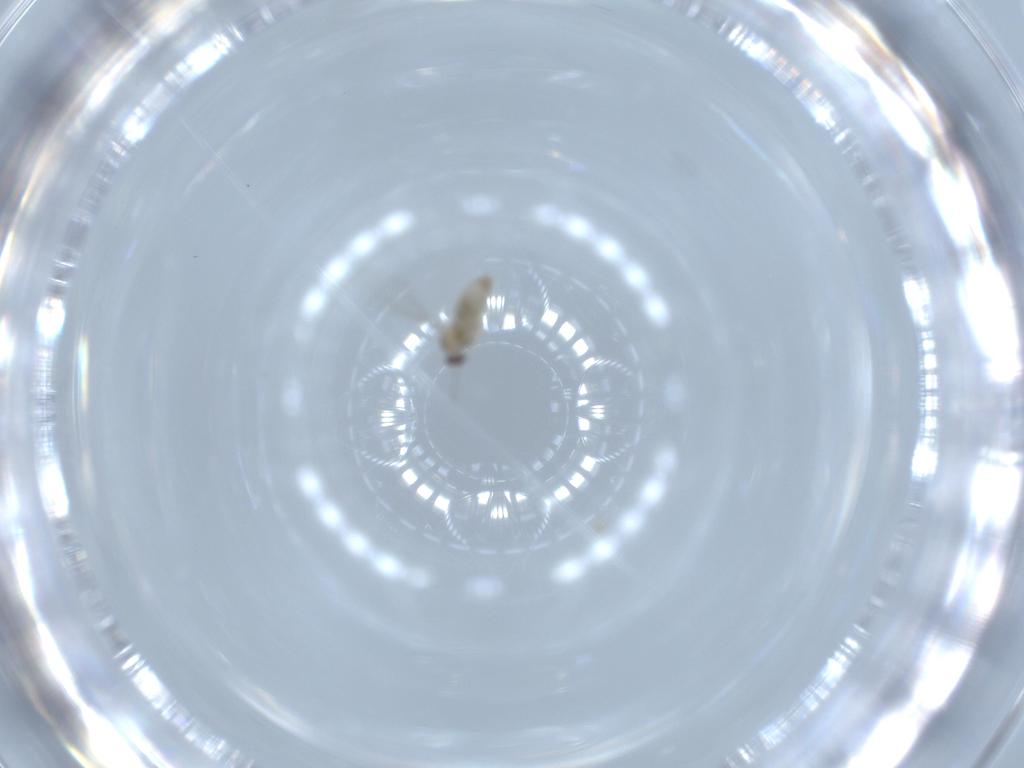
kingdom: Animalia
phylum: Arthropoda
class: Insecta
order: Diptera
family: Cecidomyiidae
